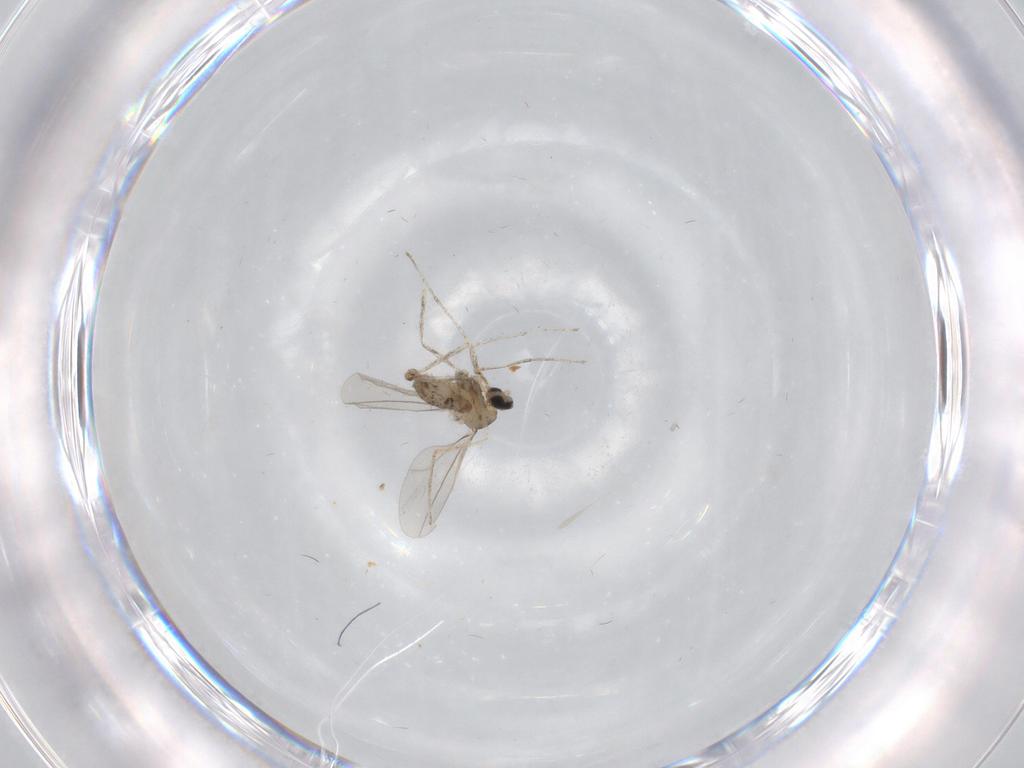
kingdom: Animalia
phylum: Arthropoda
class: Insecta
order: Diptera
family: Cecidomyiidae
